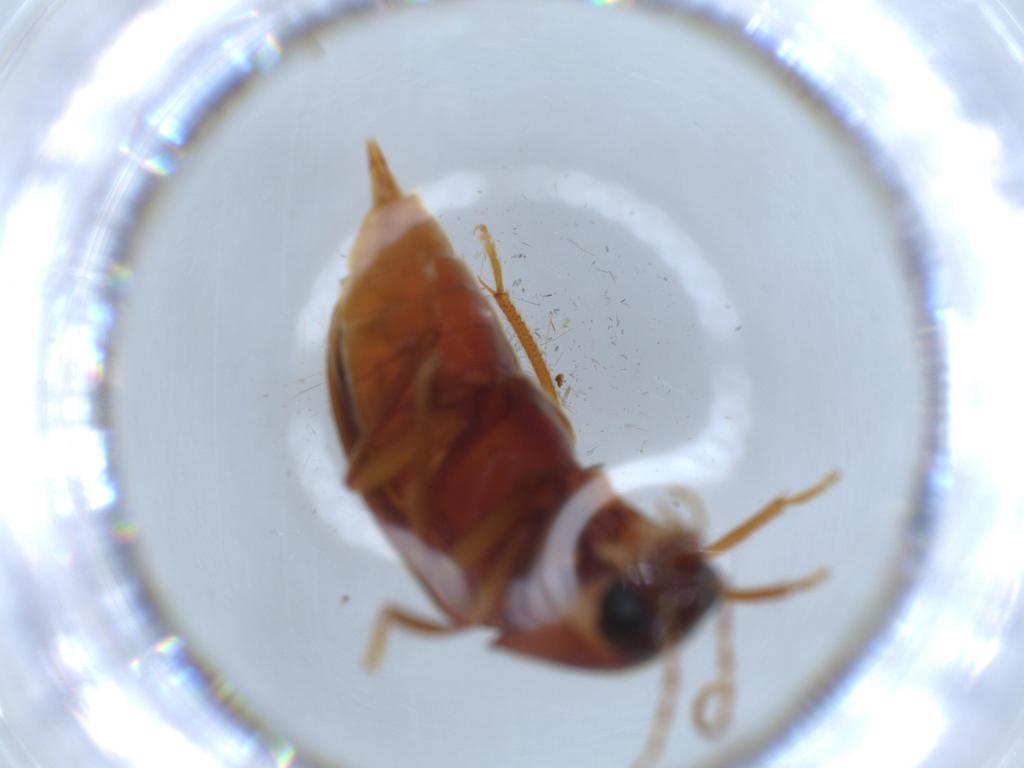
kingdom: Animalia
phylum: Arthropoda
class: Insecta
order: Coleoptera
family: Ptilodactylidae
